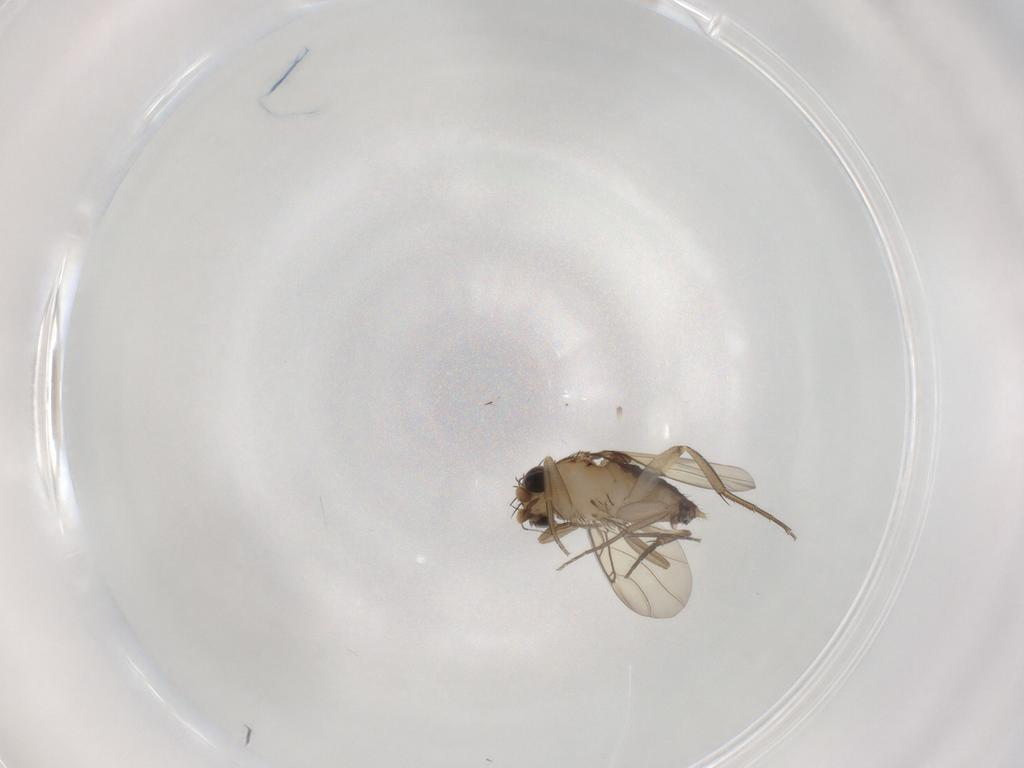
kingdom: Animalia
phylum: Arthropoda
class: Insecta
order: Diptera
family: Phoridae
